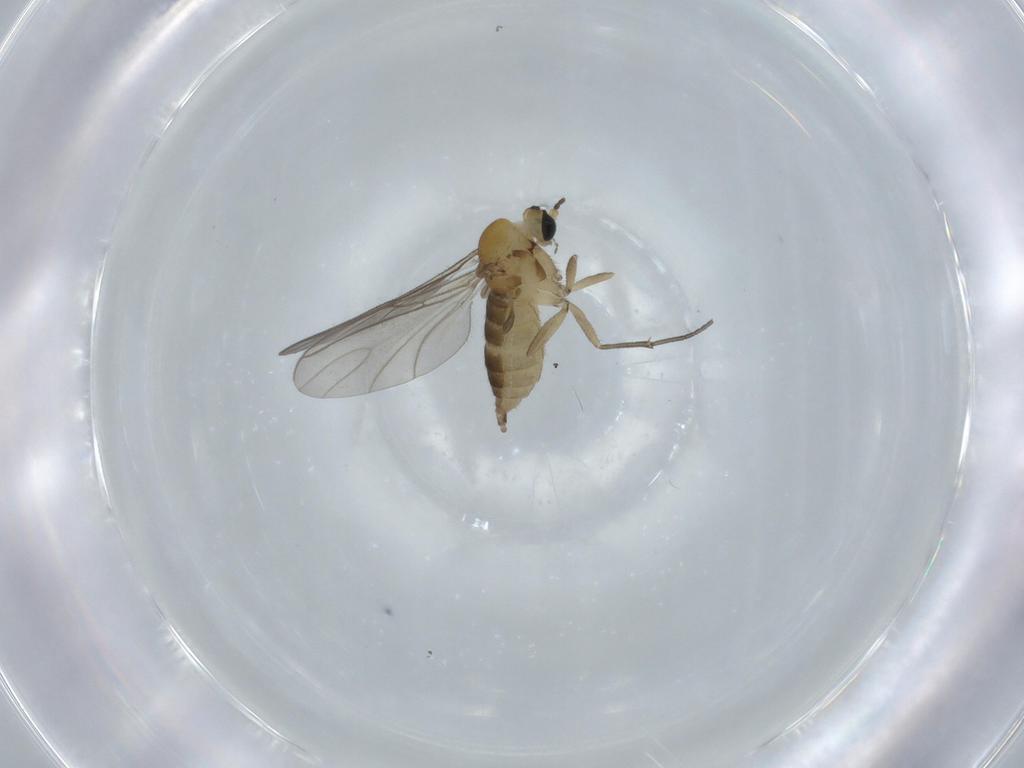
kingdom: Animalia
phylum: Arthropoda
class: Insecta
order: Diptera
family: Sciaridae
